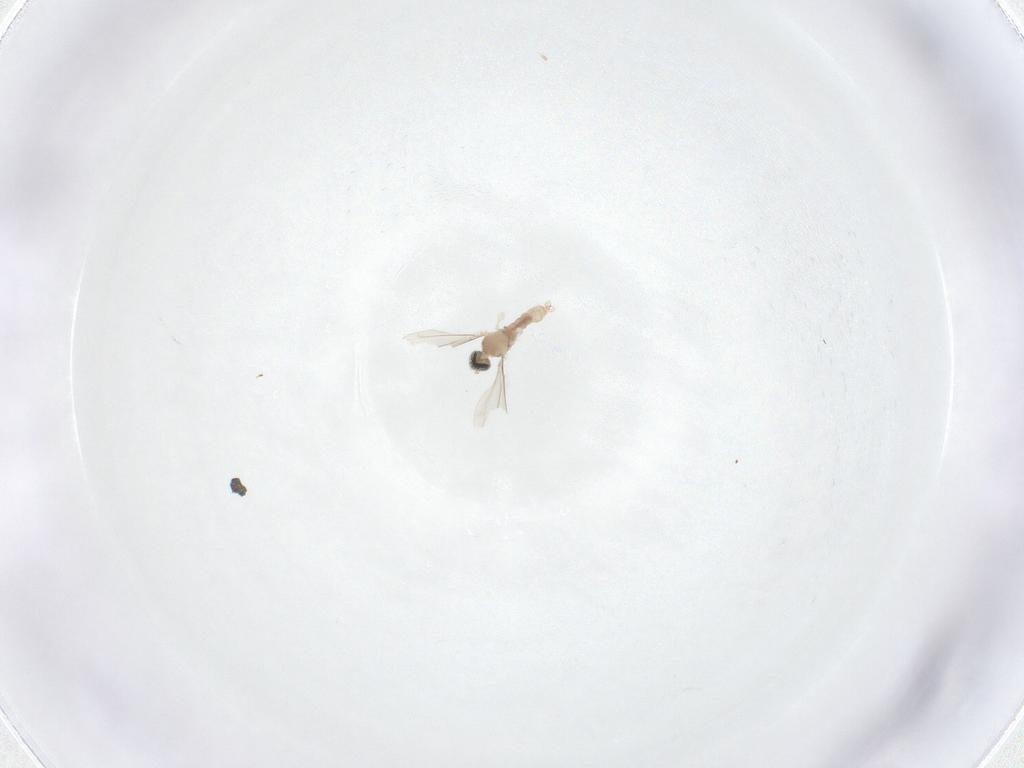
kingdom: Animalia
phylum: Arthropoda
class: Insecta
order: Diptera
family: Cecidomyiidae
